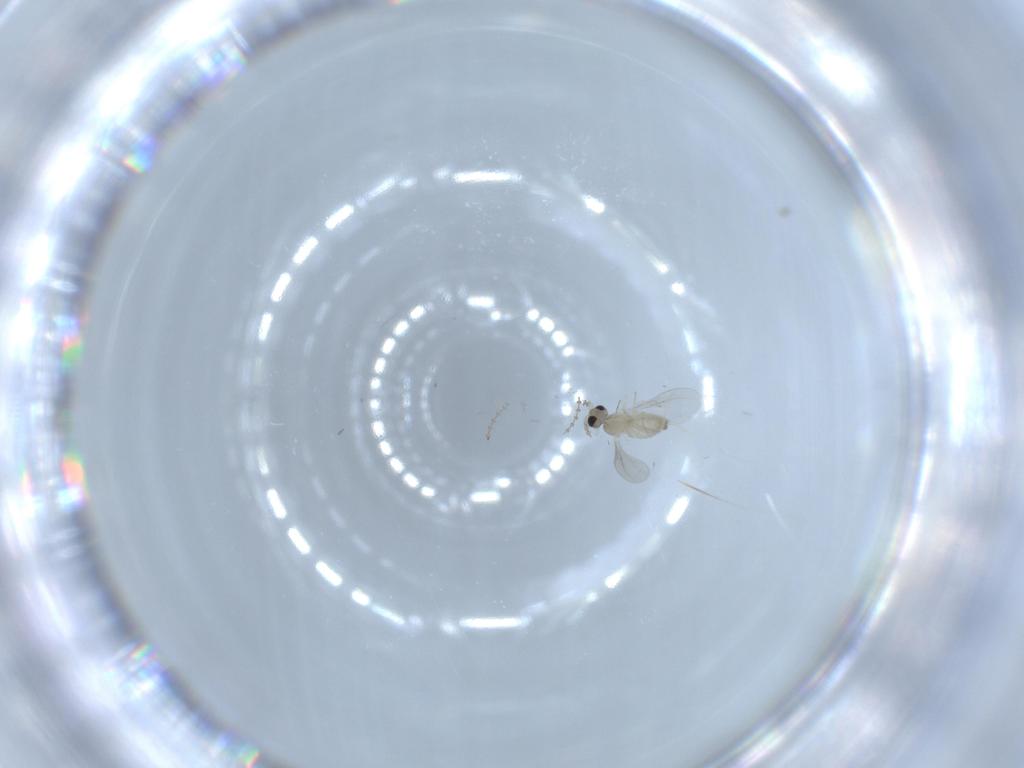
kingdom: Animalia
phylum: Arthropoda
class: Insecta
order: Diptera
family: Cecidomyiidae
